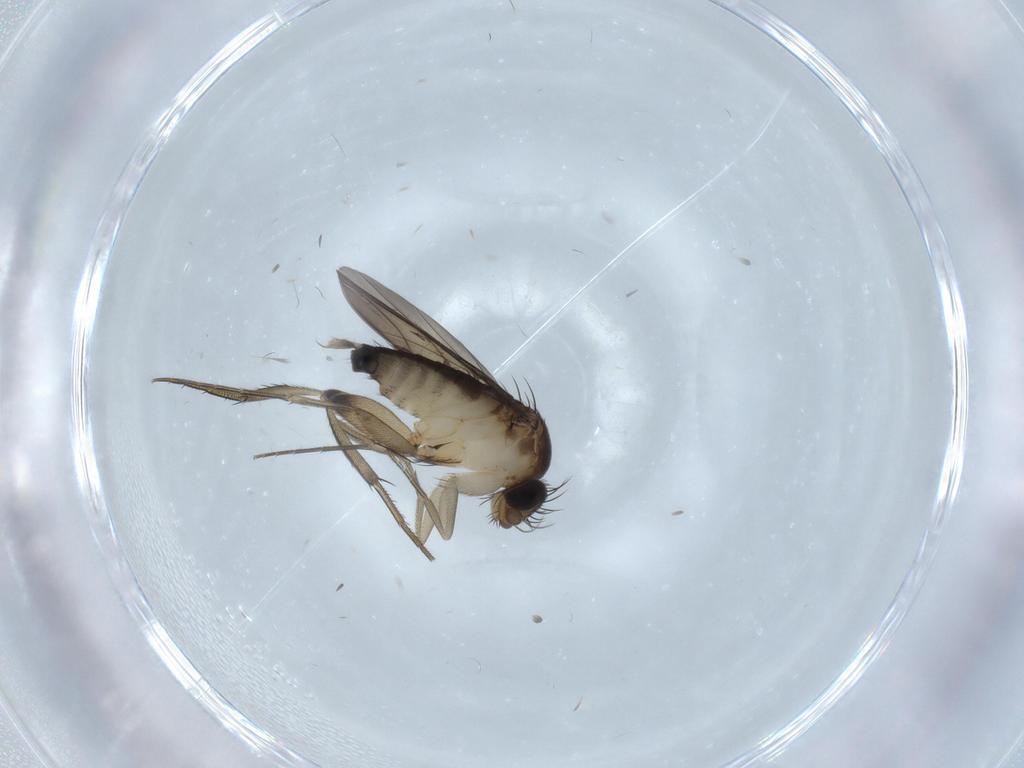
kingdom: Animalia
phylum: Arthropoda
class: Insecta
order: Diptera
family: Phoridae
